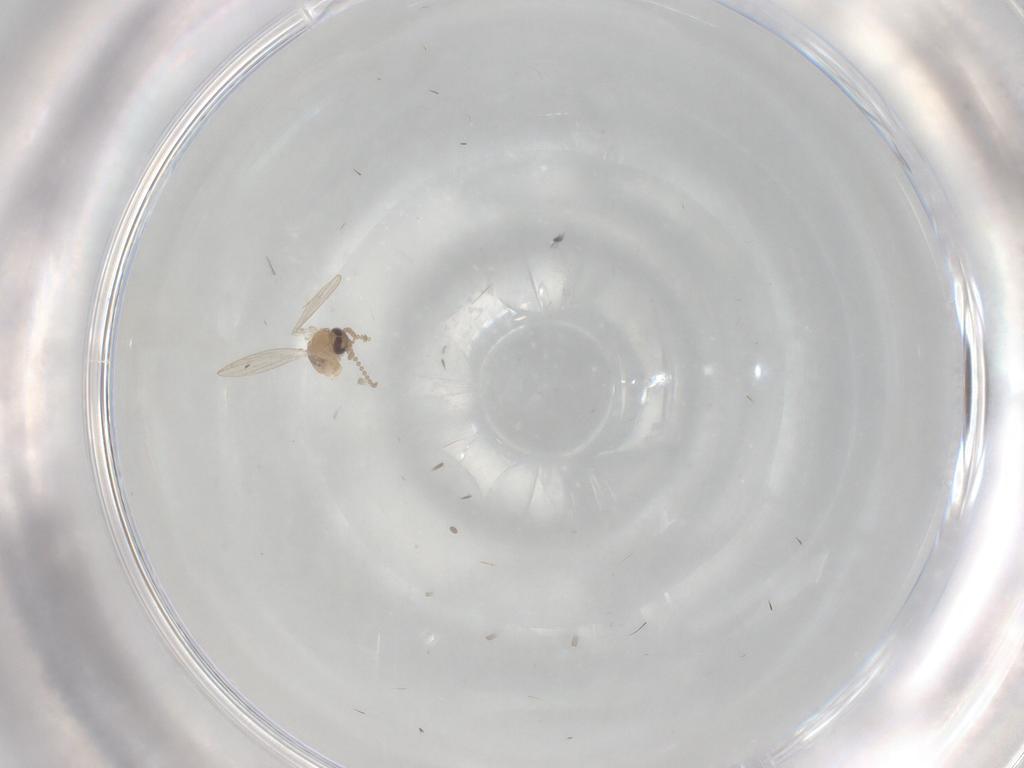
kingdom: Animalia
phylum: Arthropoda
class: Insecta
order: Diptera
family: Psychodidae
